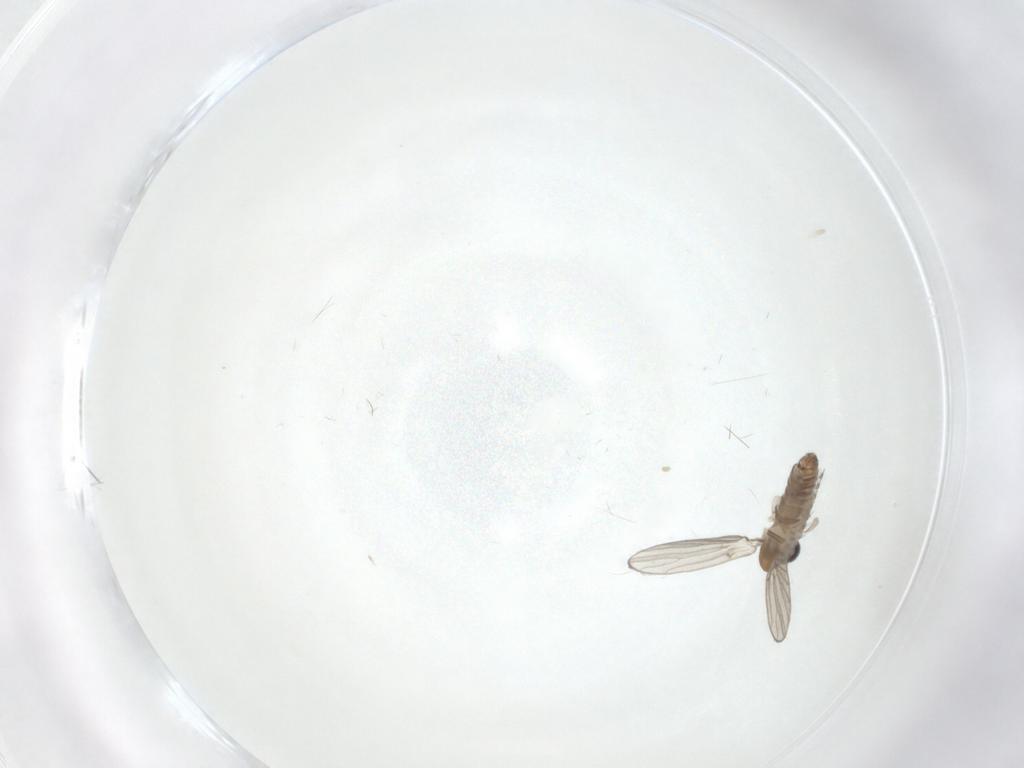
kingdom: Animalia
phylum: Arthropoda
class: Insecta
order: Diptera
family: Psychodidae
